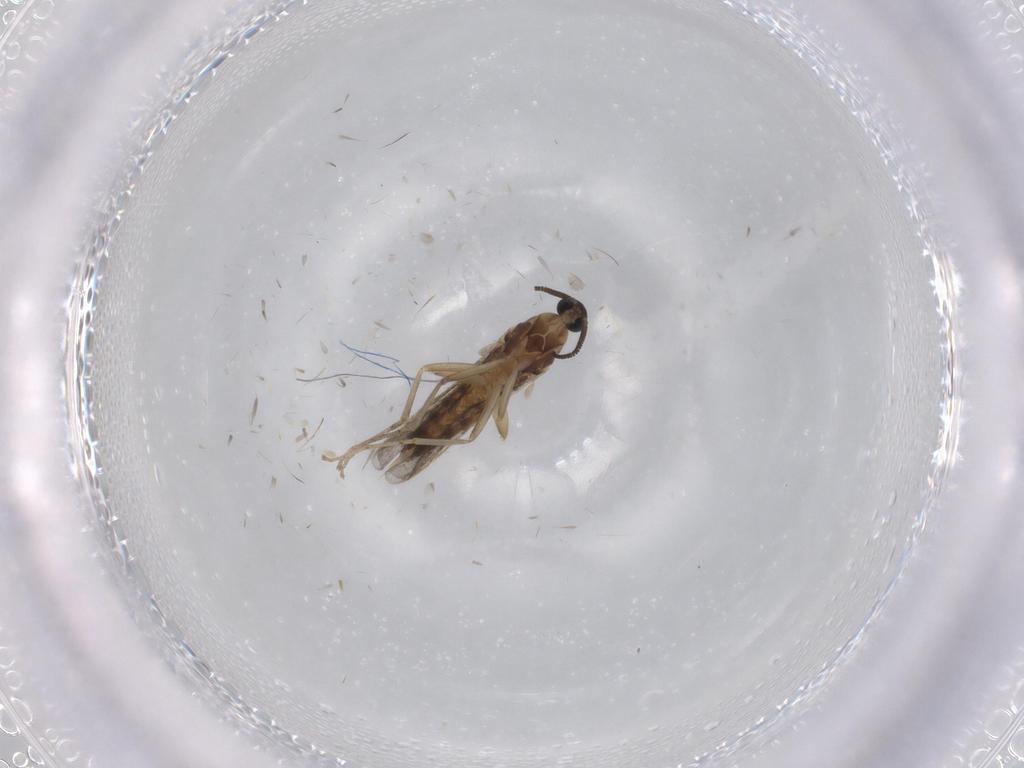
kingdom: Animalia
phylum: Arthropoda
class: Insecta
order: Diptera
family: Cecidomyiidae
